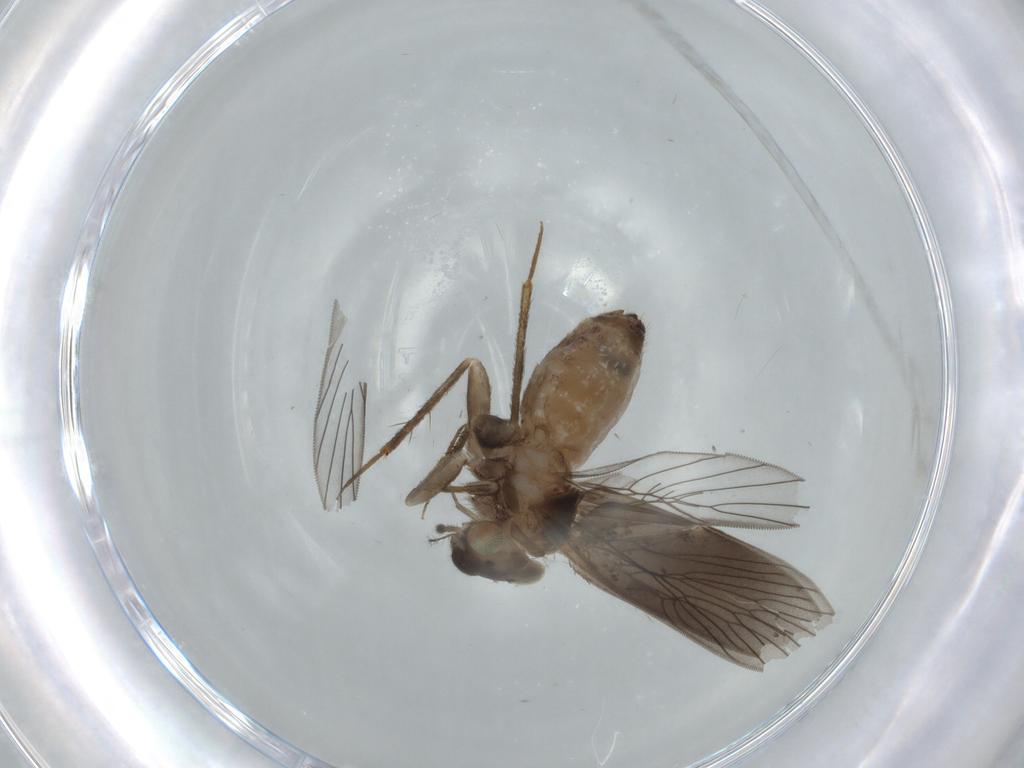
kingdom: Animalia
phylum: Arthropoda
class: Insecta
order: Psocodea
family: Lepidopsocidae
